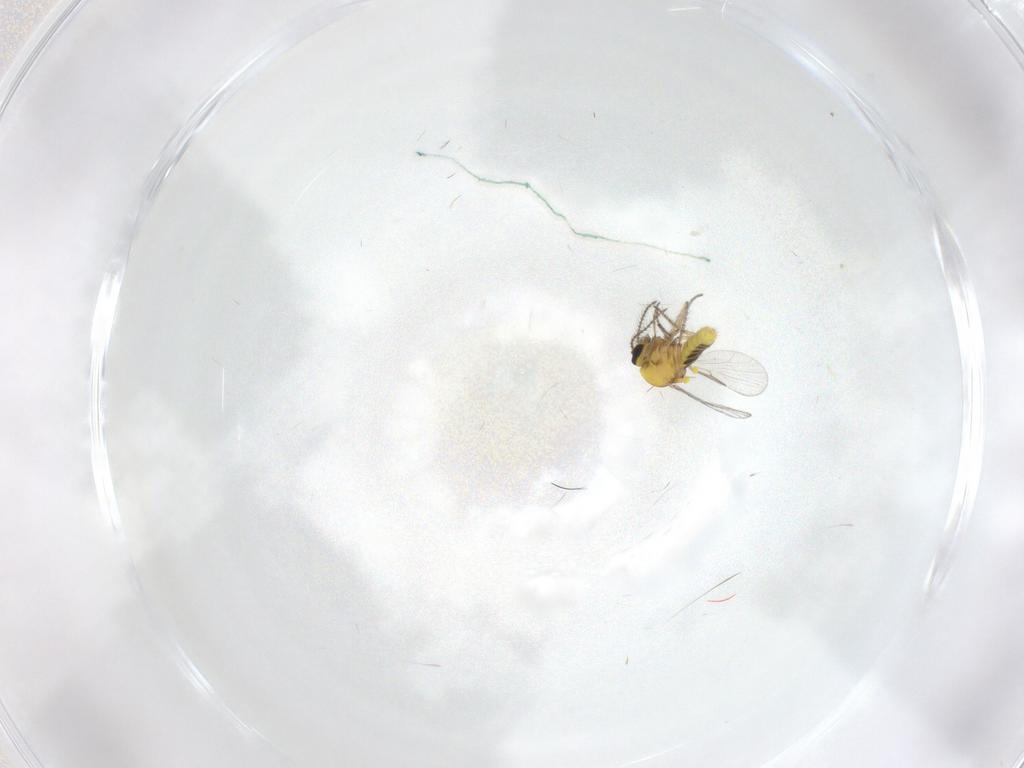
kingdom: Animalia
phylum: Arthropoda
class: Insecta
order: Diptera
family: Ceratopogonidae
